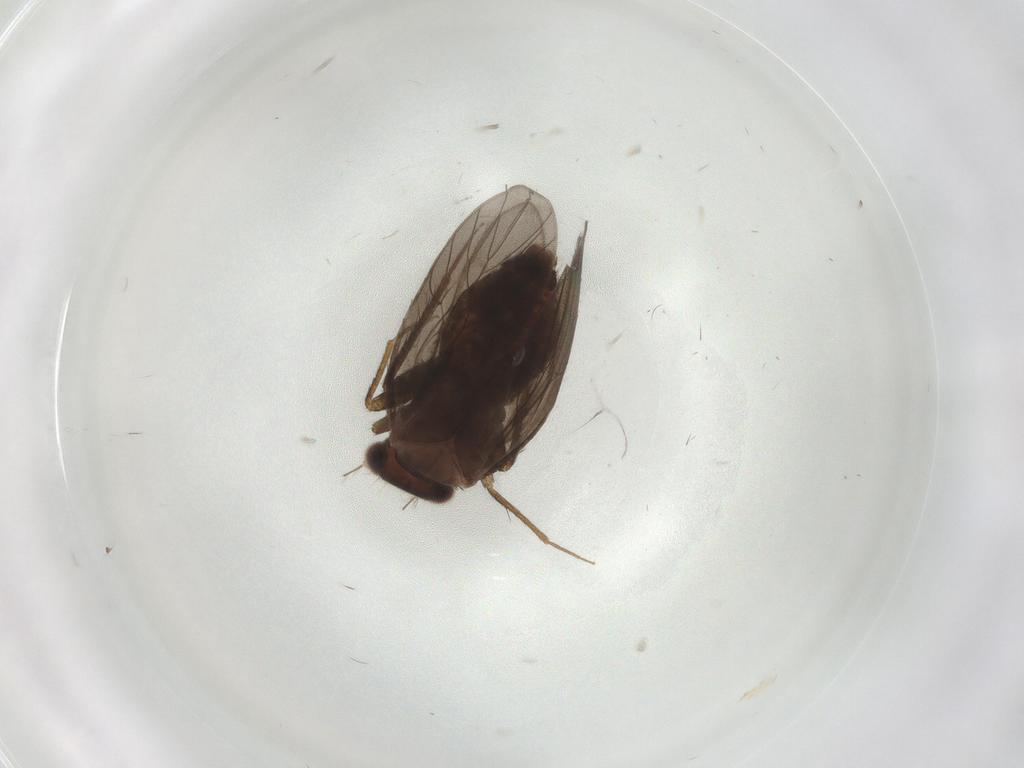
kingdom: Animalia
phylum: Arthropoda
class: Insecta
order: Psocodea
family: Lepidopsocidae
